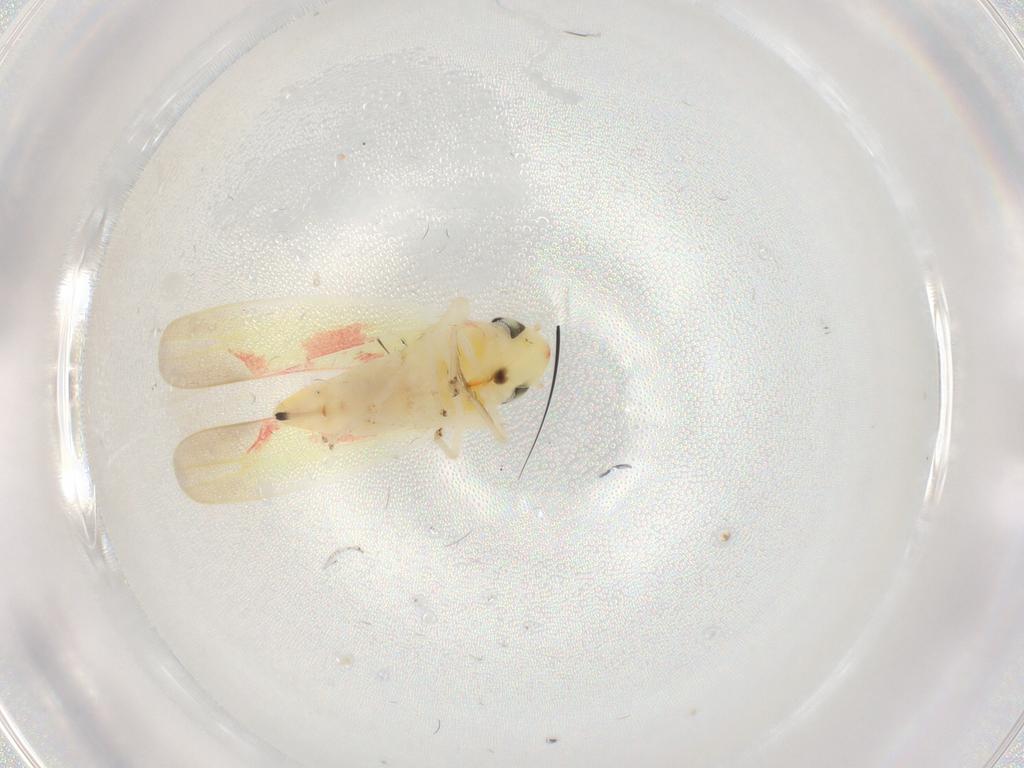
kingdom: Animalia
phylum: Arthropoda
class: Insecta
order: Hemiptera
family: Cicadellidae
